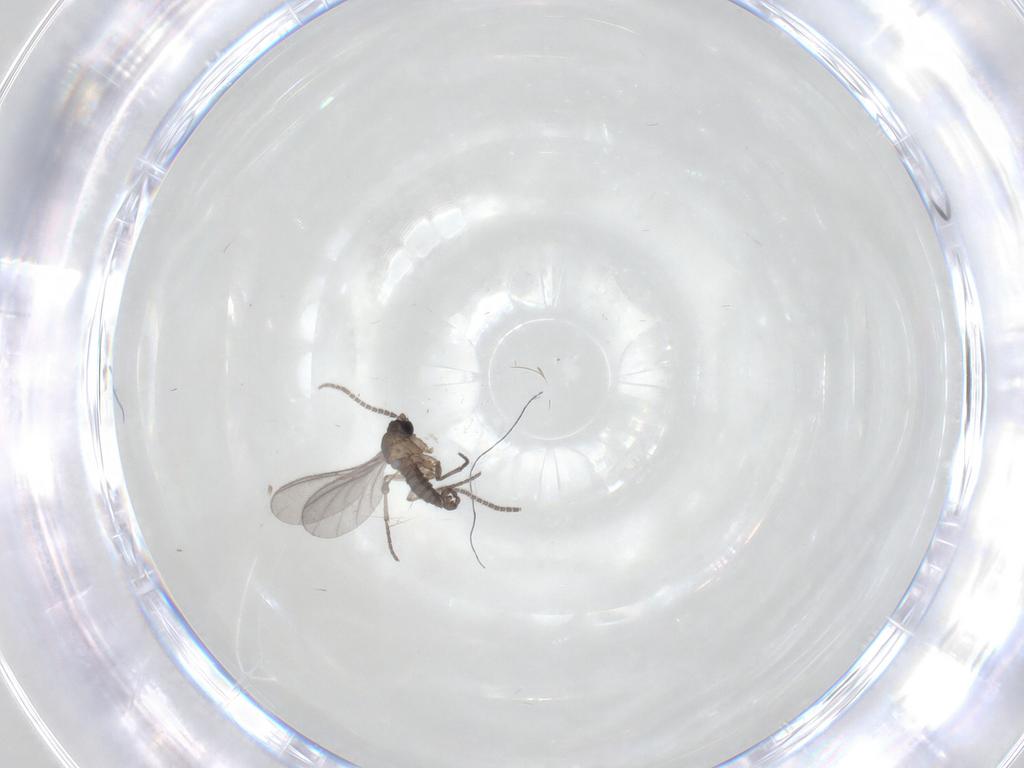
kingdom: Animalia
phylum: Arthropoda
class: Insecta
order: Diptera
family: Sciaridae
